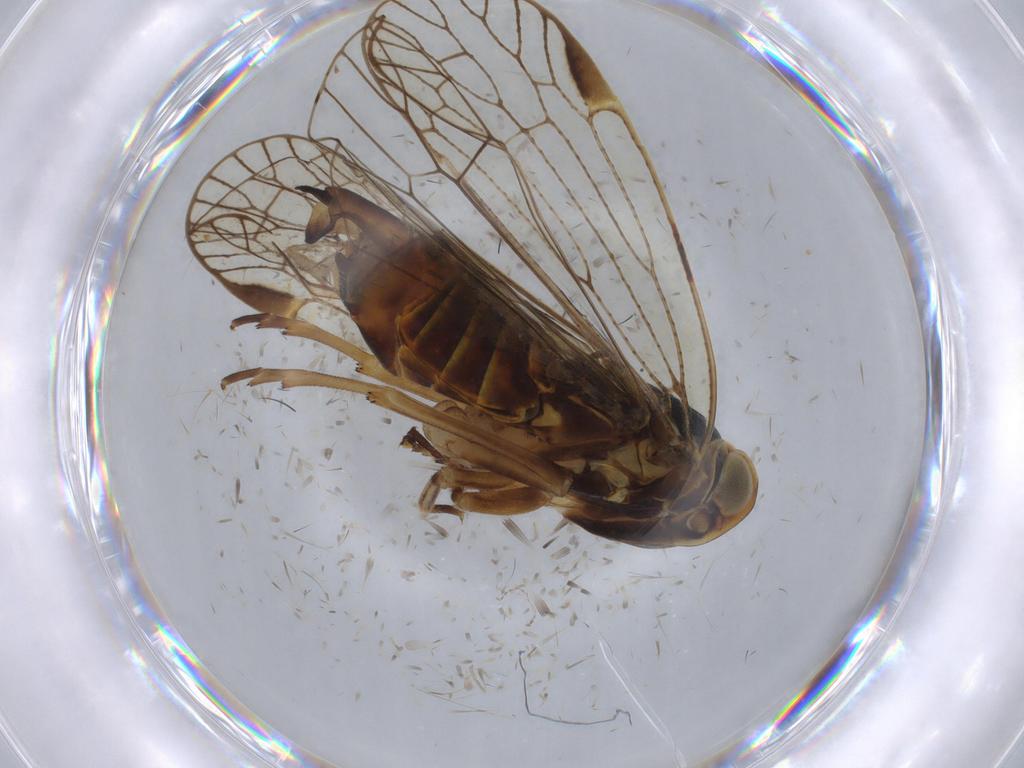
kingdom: Animalia
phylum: Arthropoda
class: Insecta
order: Hemiptera
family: Cixiidae
